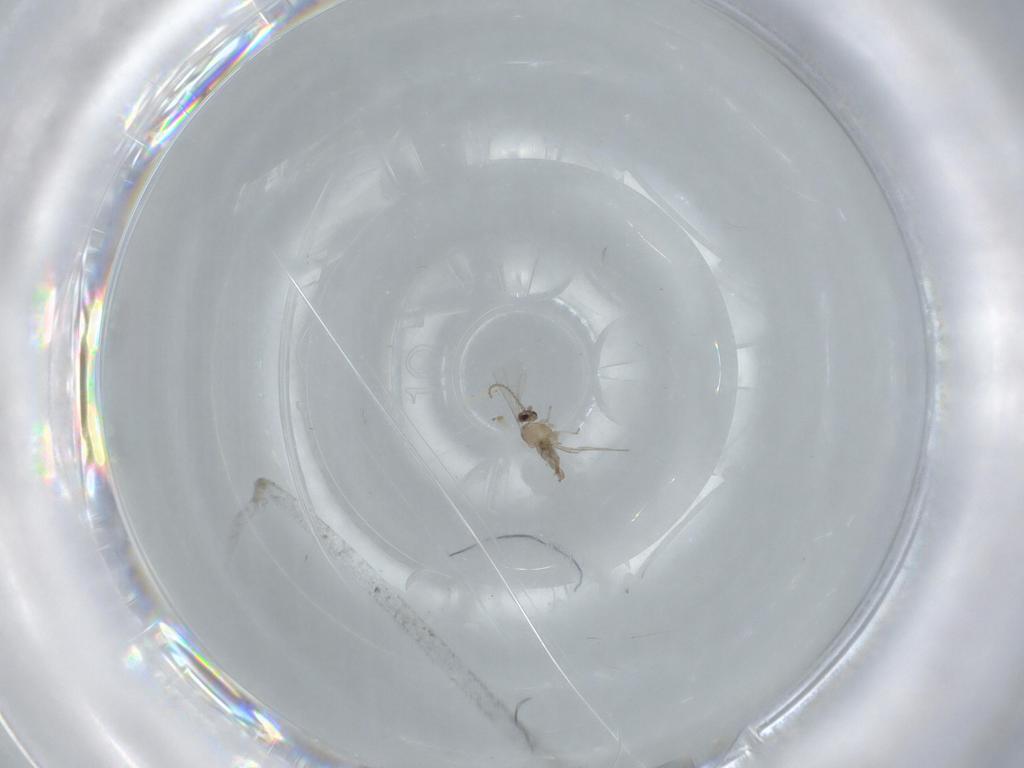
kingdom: Animalia
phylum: Arthropoda
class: Insecta
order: Diptera
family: Cecidomyiidae
